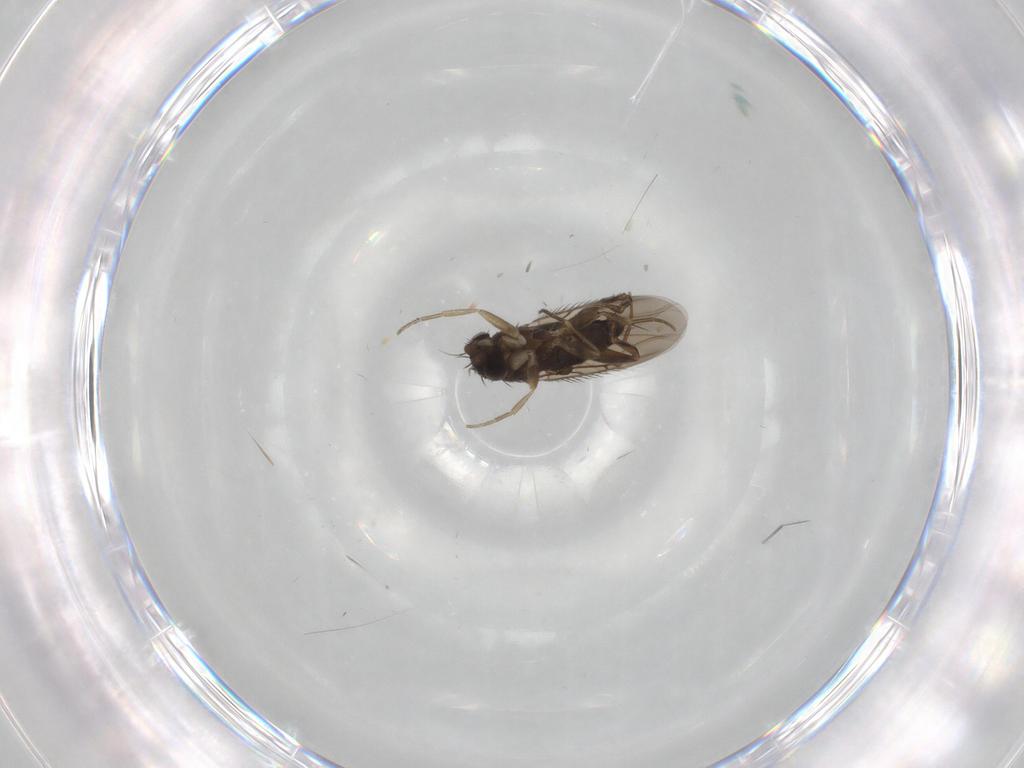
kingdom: Animalia
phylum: Arthropoda
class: Insecta
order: Diptera
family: Phoridae
